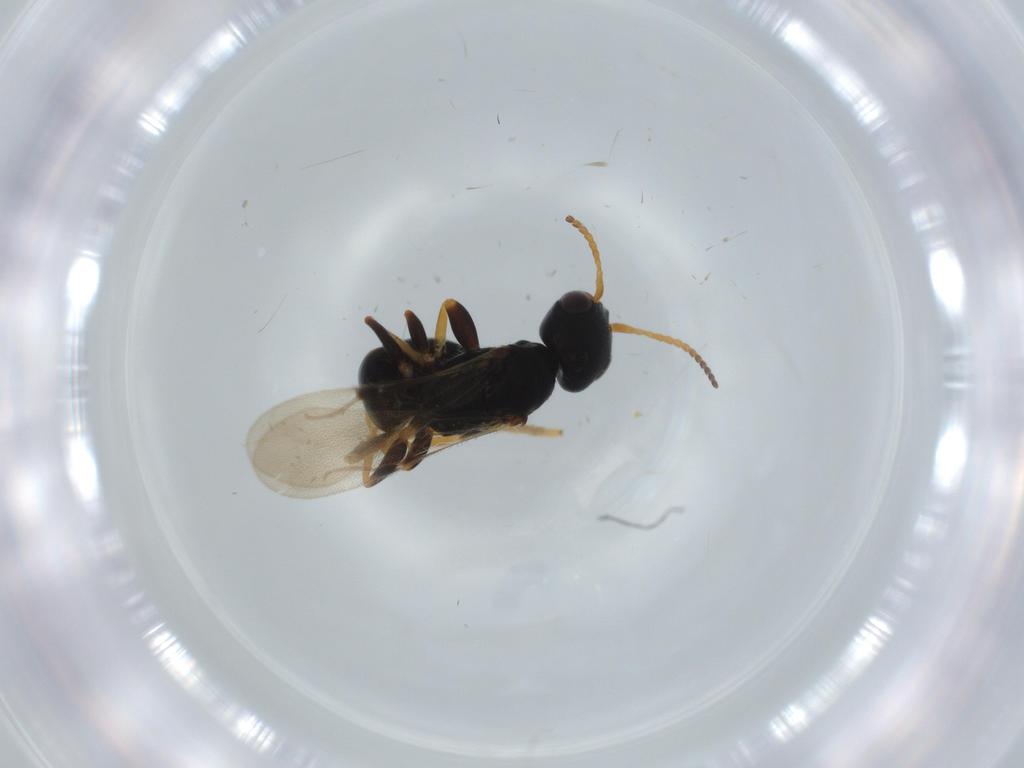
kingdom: Animalia
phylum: Arthropoda
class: Insecta
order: Hymenoptera
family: Bethylidae
